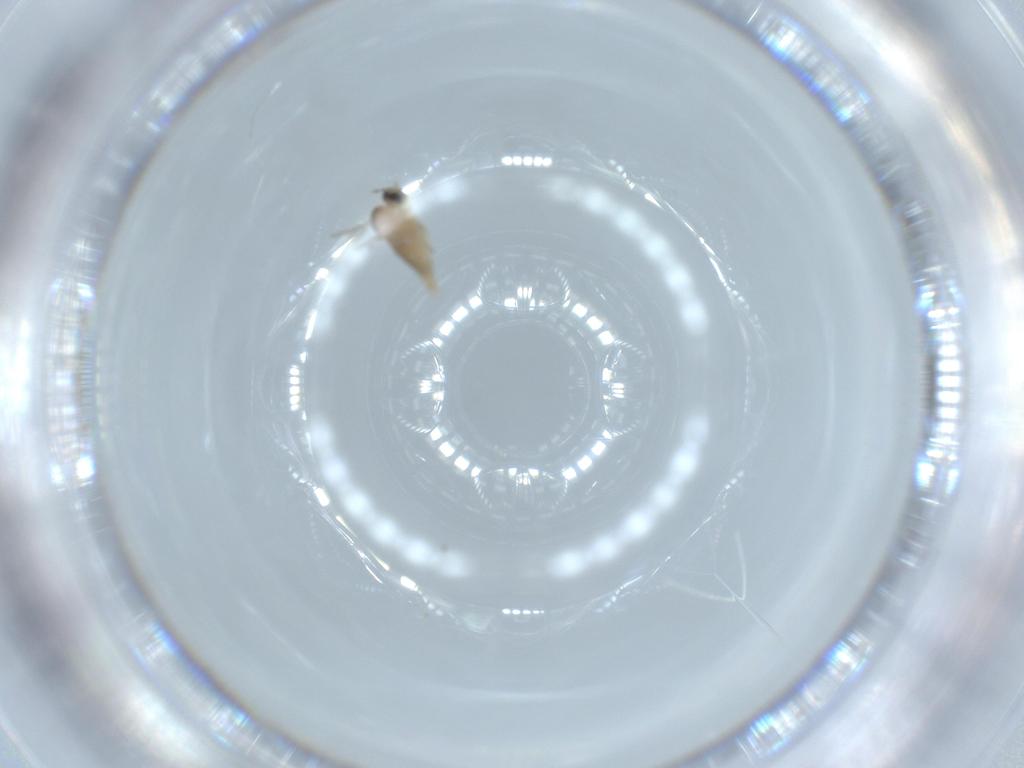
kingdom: Animalia
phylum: Arthropoda
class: Insecta
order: Diptera
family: Cecidomyiidae
